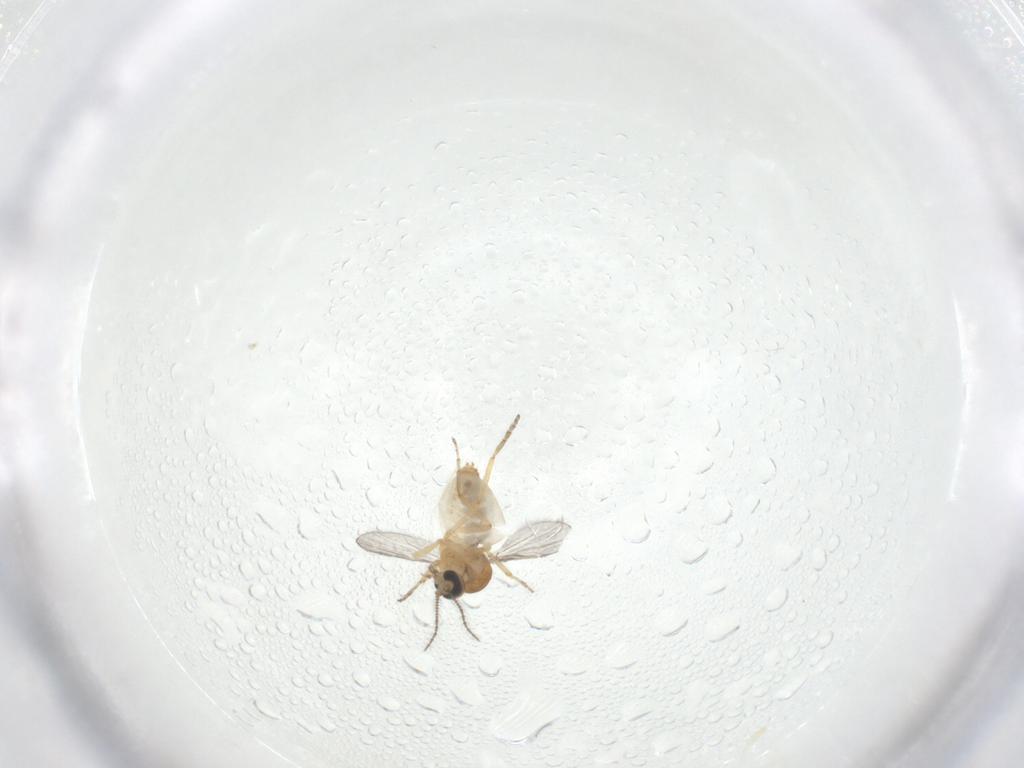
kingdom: Animalia
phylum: Arthropoda
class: Insecta
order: Diptera
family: Ceratopogonidae
